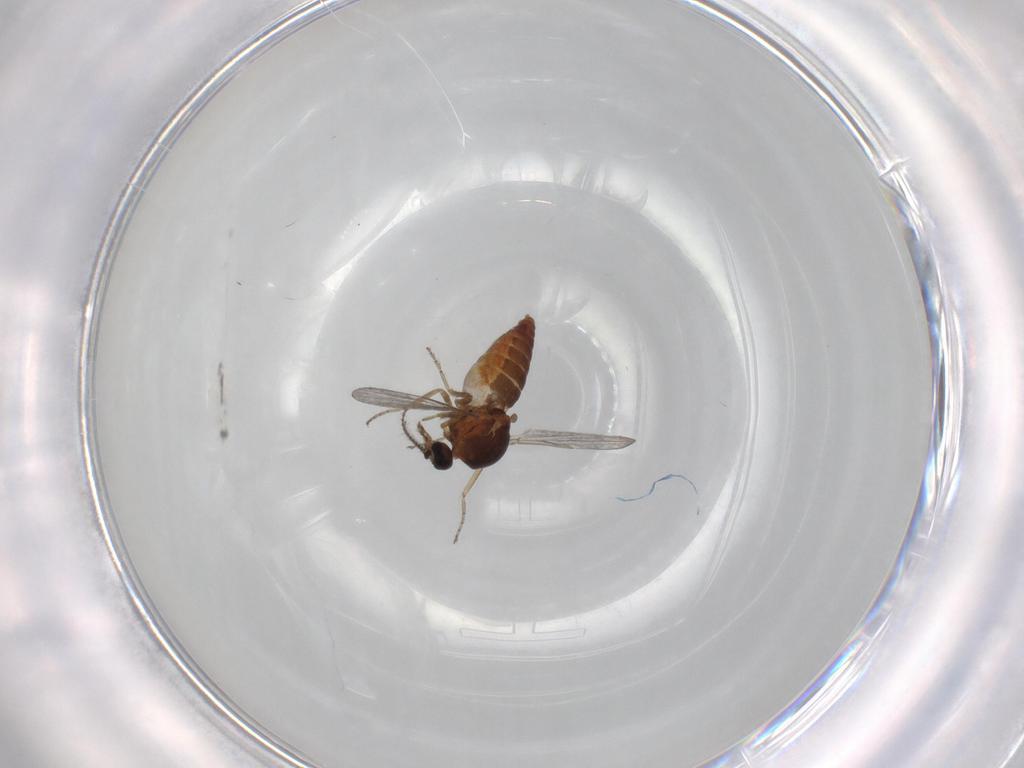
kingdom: Animalia
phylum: Arthropoda
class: Insecta
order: Diptera
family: Ceratopogonidae
